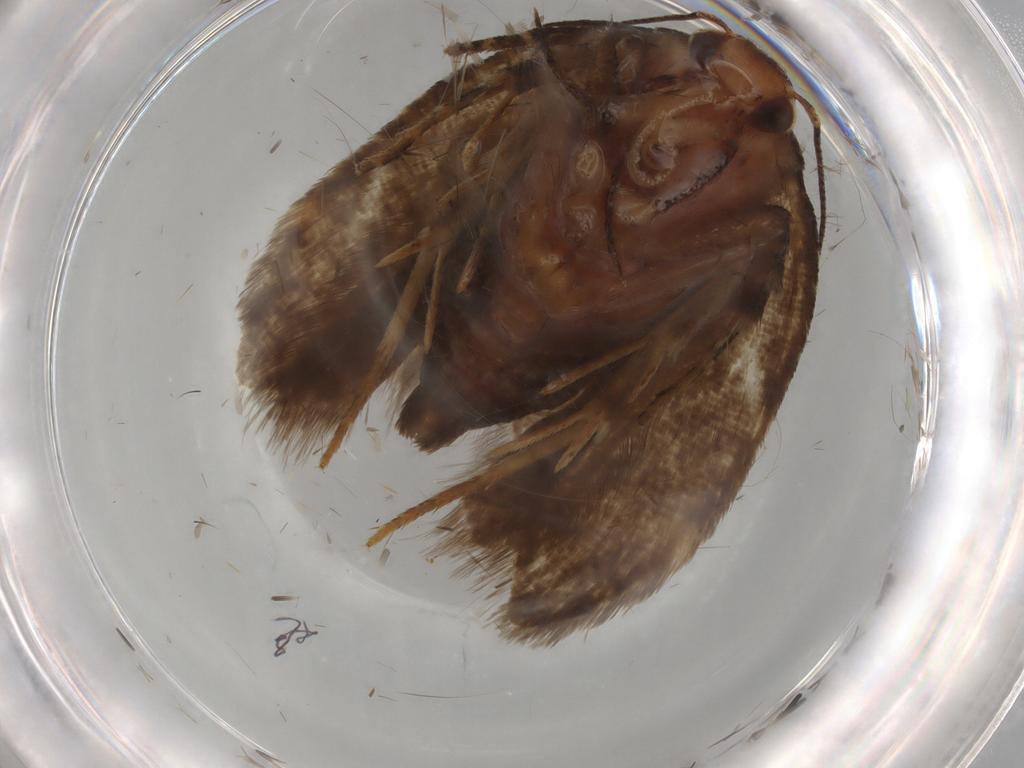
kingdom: Animalia
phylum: Arthropoda
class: Insecta
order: Lepidoptera
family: Gelechiidae
